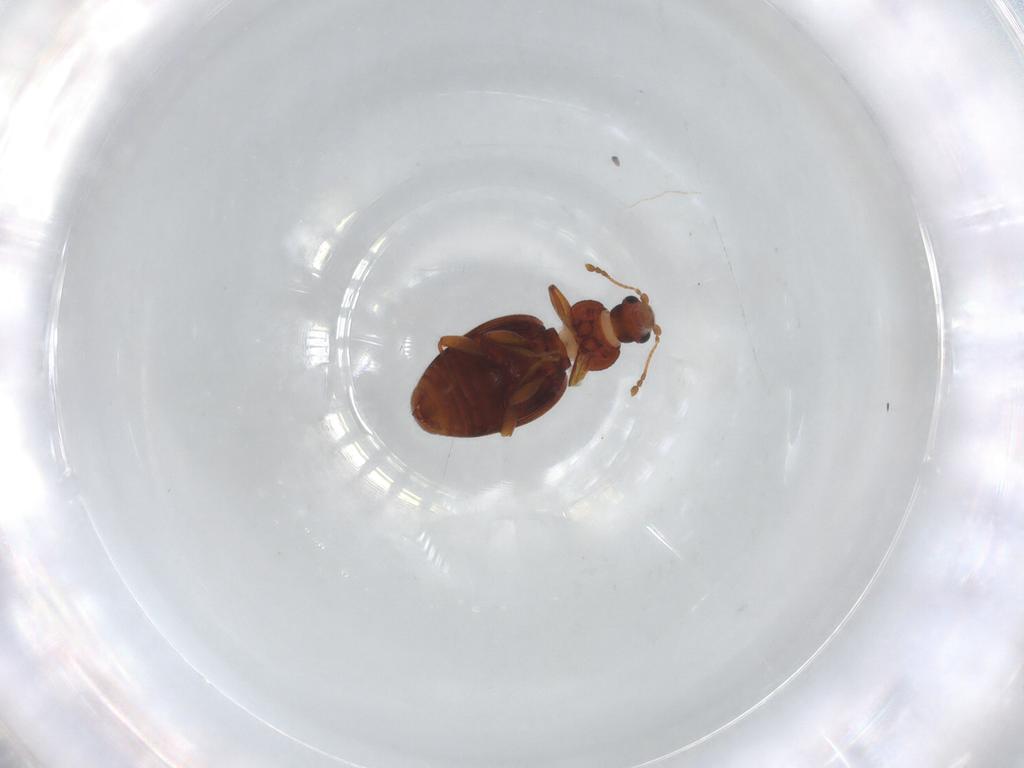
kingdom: Animalia
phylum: Arthropoda
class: Insecta
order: Coleoptera
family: Latridiidae
